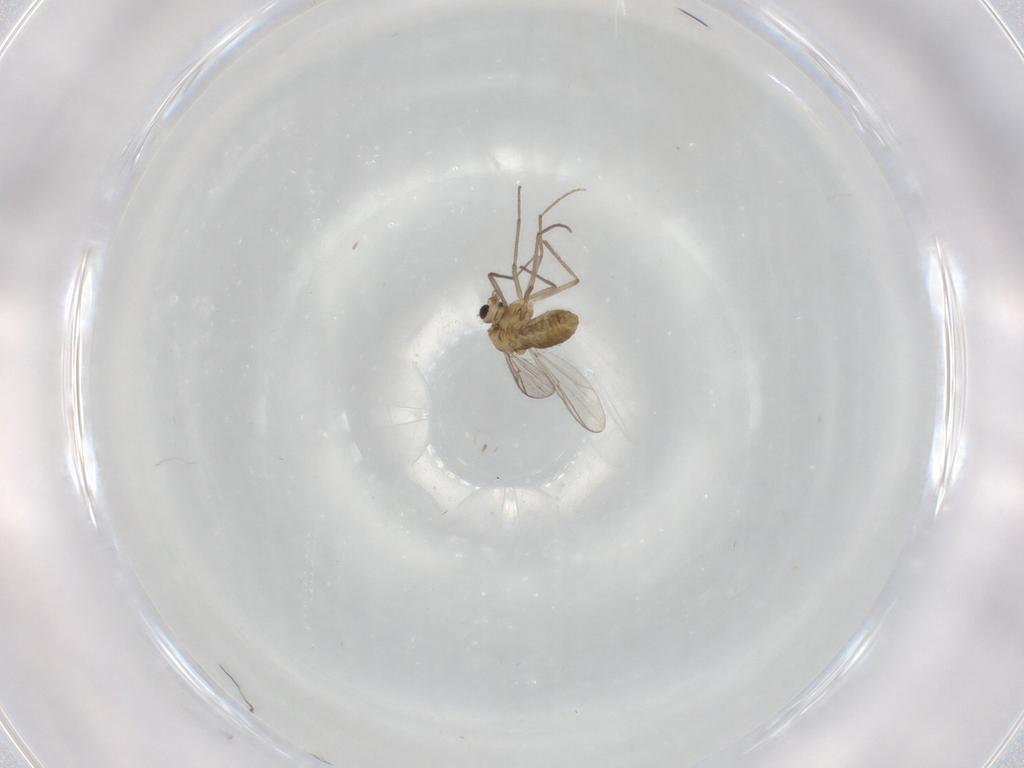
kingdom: Animalia
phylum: Arthropoda
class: Insecta
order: Diptera
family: Chironomidae
